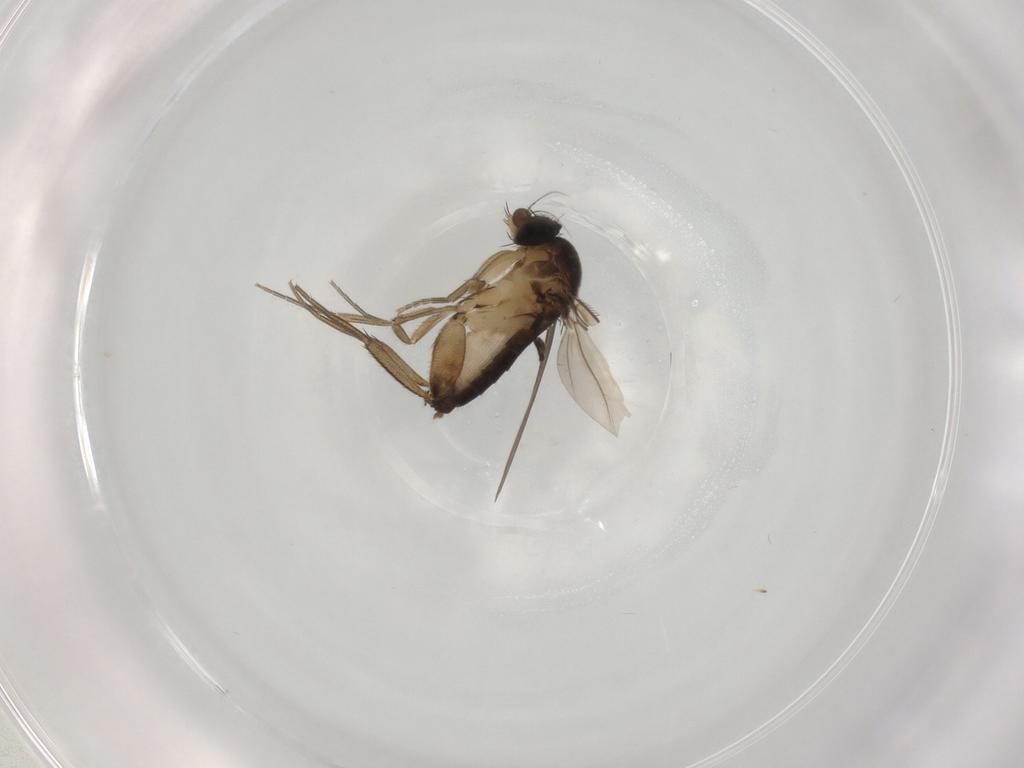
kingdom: Animalia
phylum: Arthropoda
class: Insecta
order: Diptera
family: Phoridae
